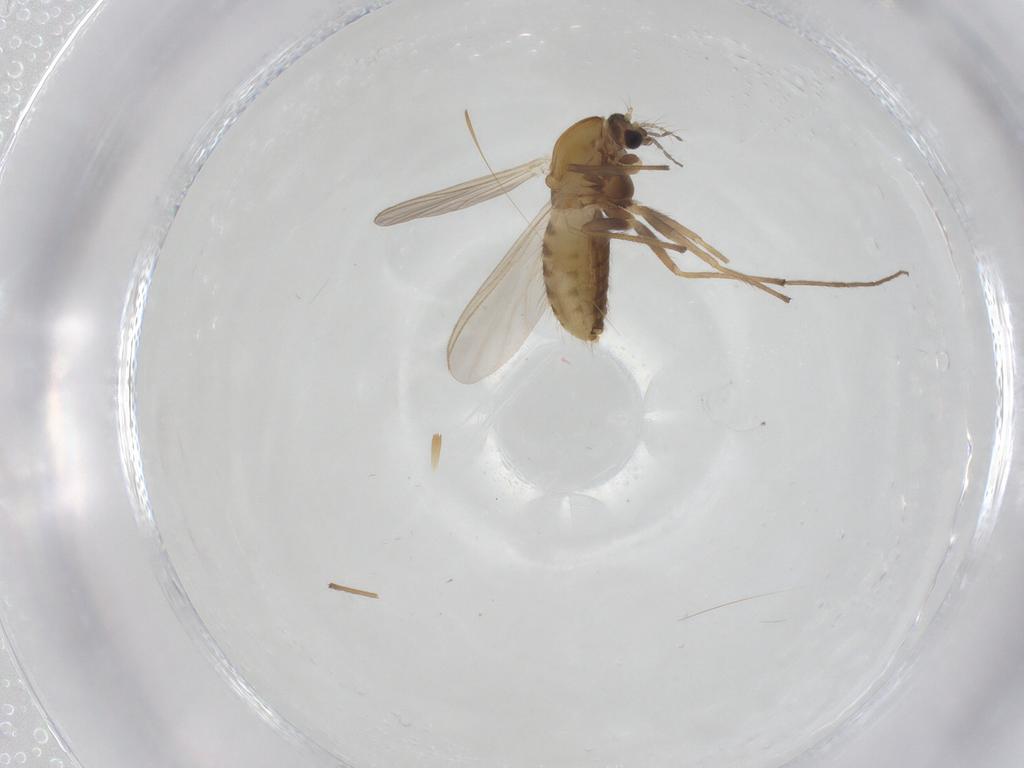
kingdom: Animalia
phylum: Arthropoda
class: Insecta
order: Diptera
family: Chironomidae
